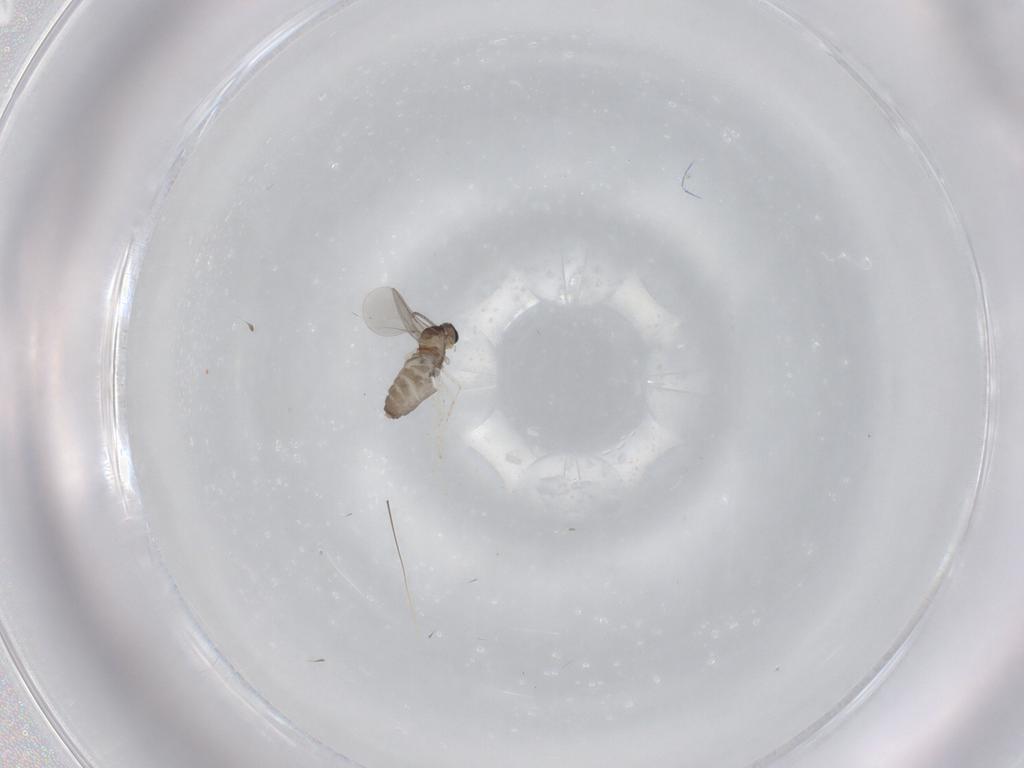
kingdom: Animalia
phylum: Arthropoda
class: Insecta
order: Diptera
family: Cecidomyiidae
